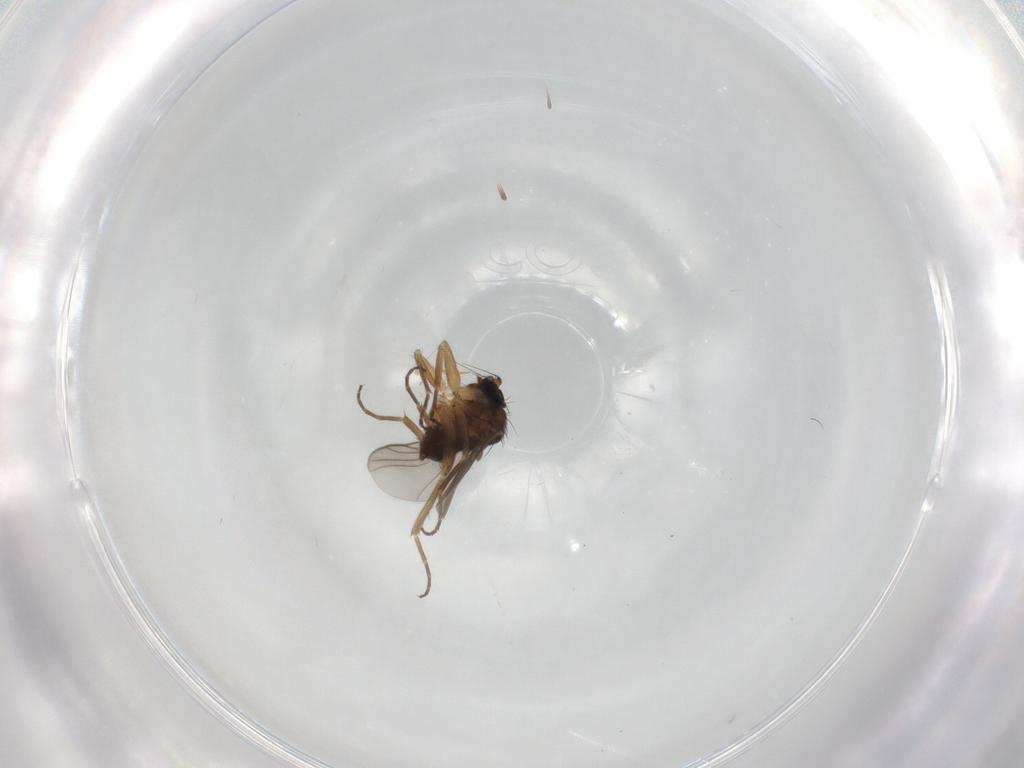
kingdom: Animalia
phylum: Arthropoda
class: Insecta
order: Diptera
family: Hybotidae
